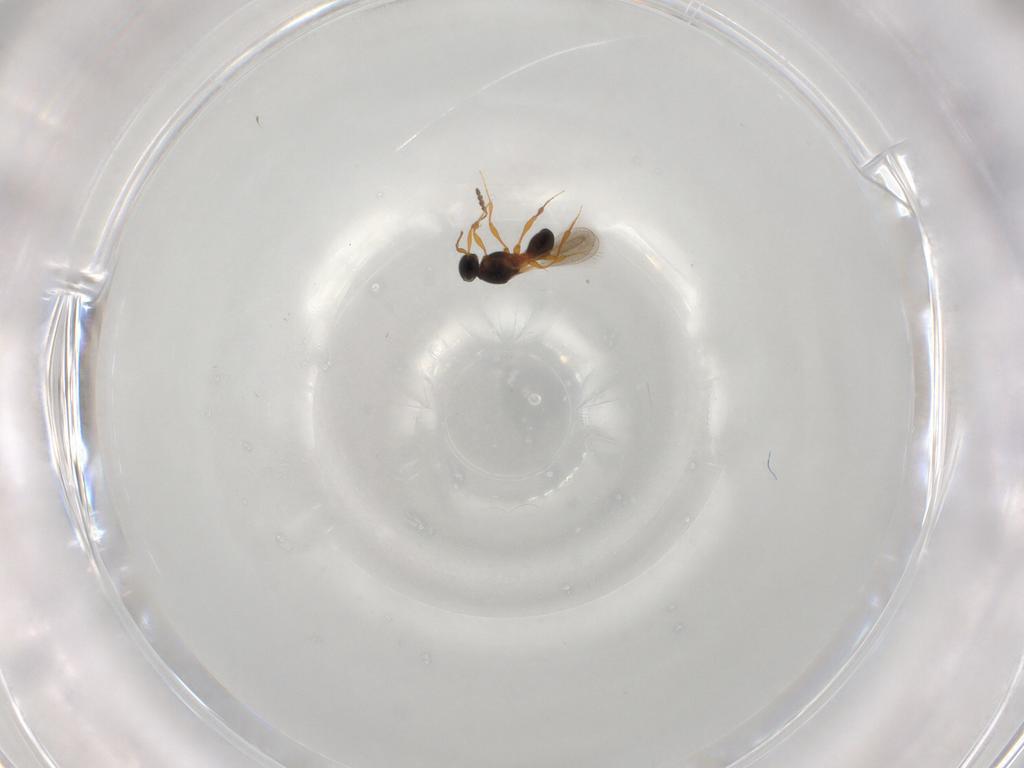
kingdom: Animalia
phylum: Arthropoda
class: Insecta
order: Hymenoptera
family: Platygastridae
